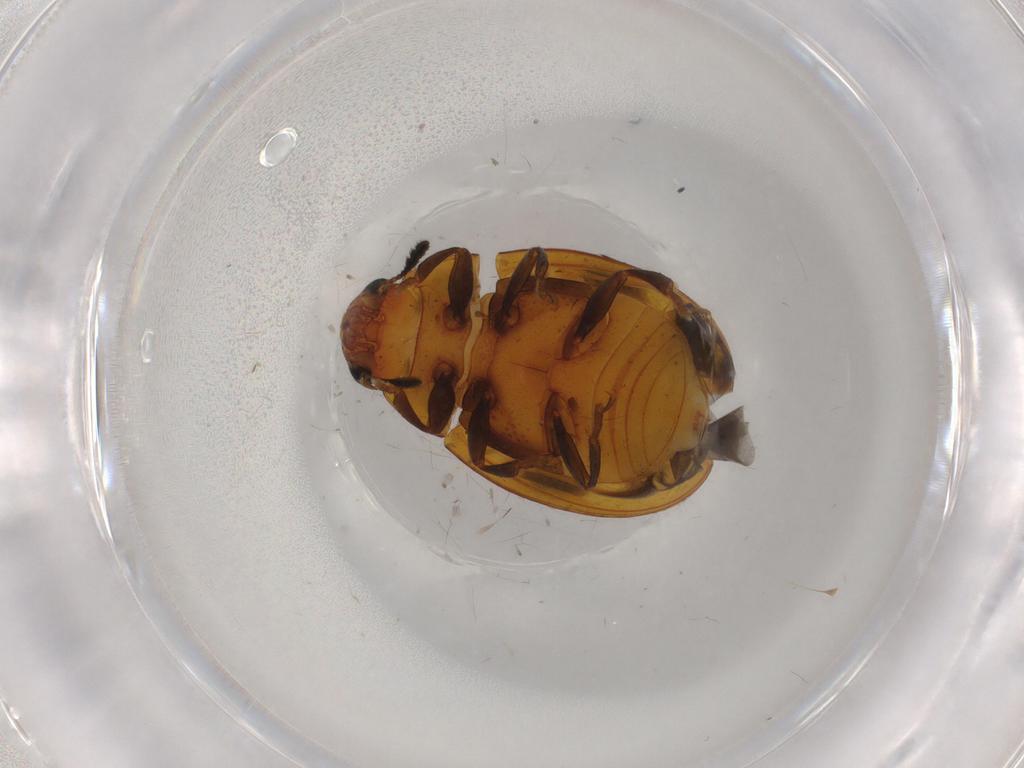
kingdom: Animalia
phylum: Arthropoda
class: Insecta
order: Coleoptera
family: Erotylidae
